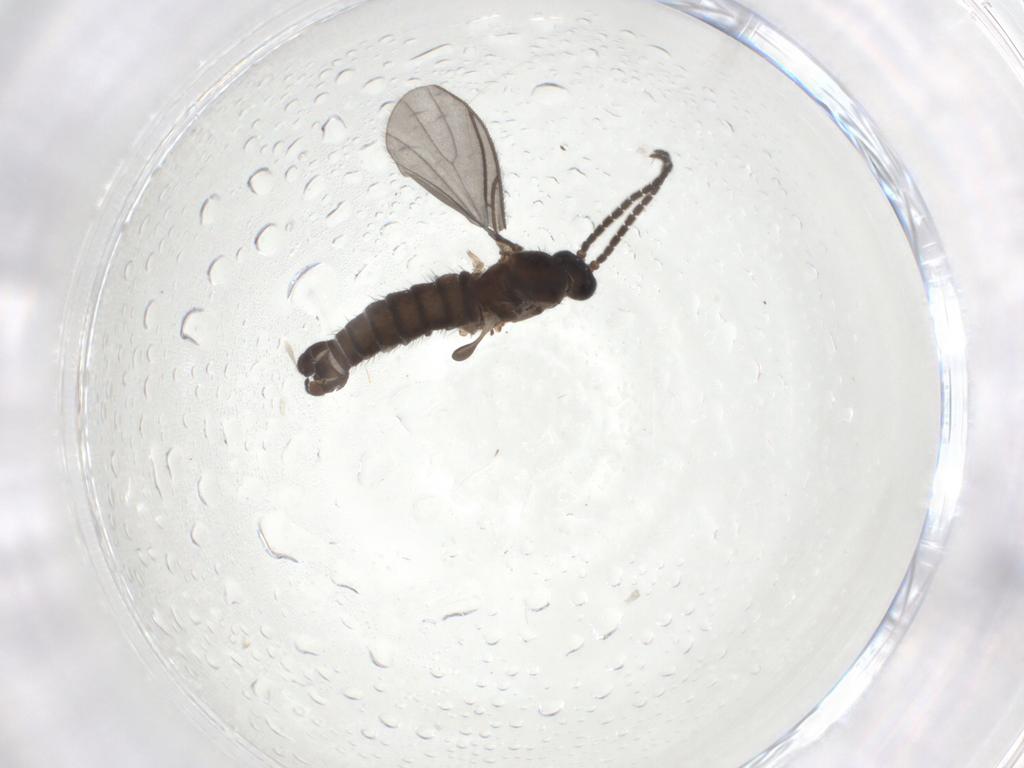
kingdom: Animalia
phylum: Arthropoda
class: Insecta
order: Diptera
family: Sciaridae
